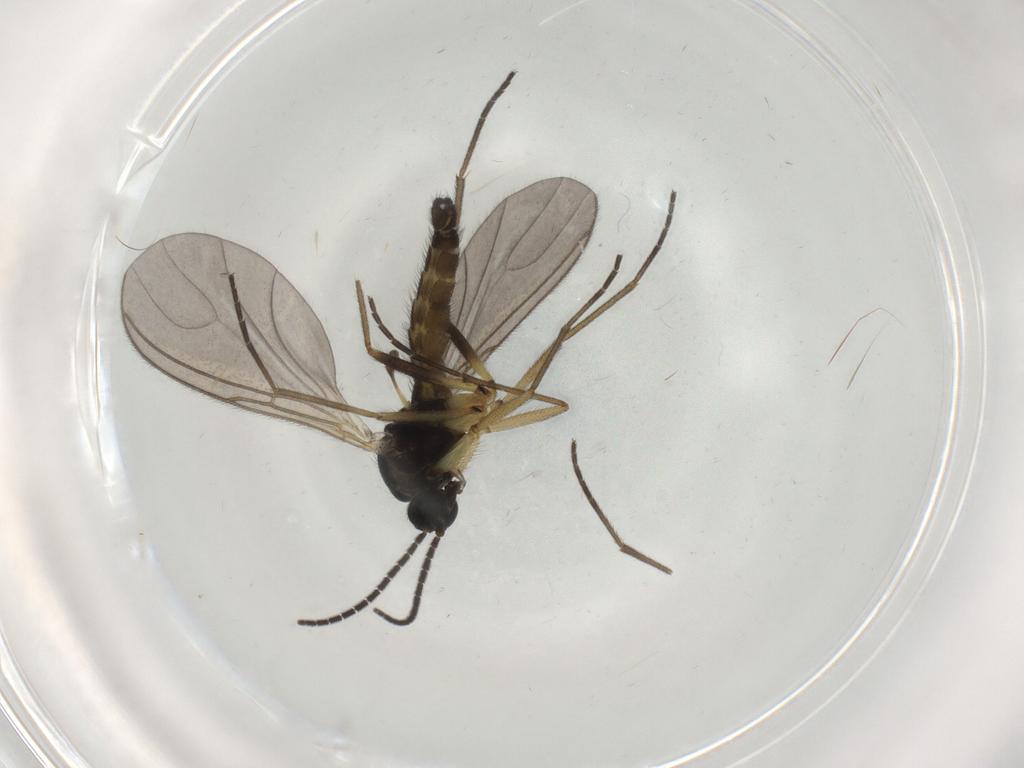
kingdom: Animalia
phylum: Arthropoda
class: Insecta
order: Diptera
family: Sciaridae
